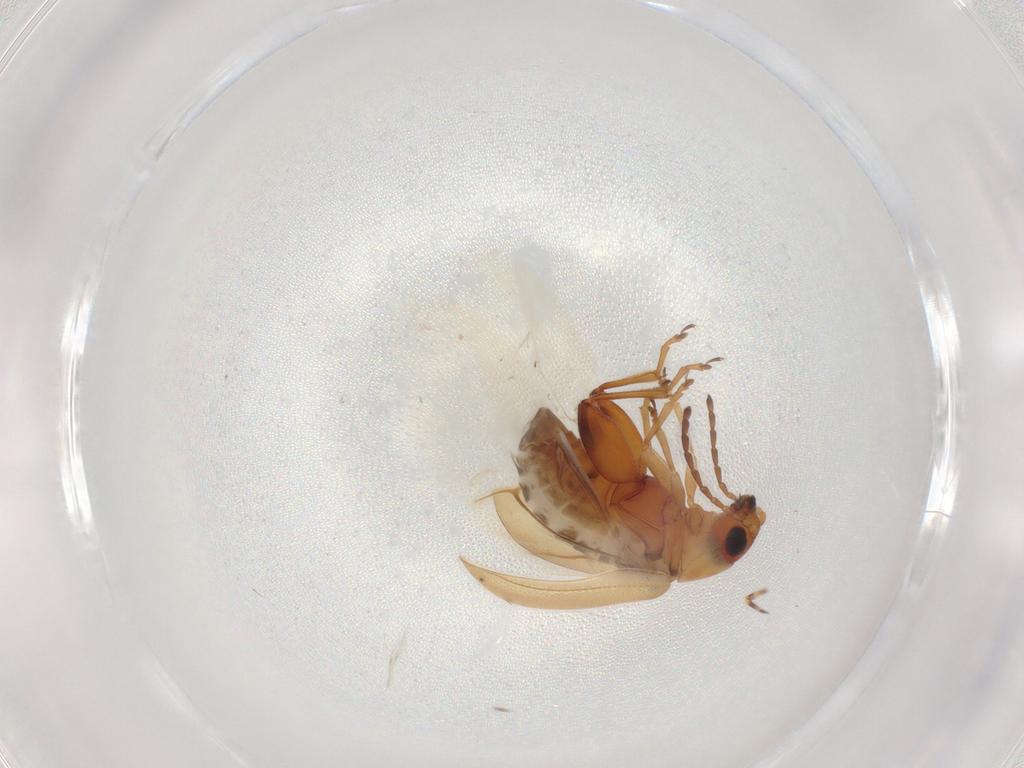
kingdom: Animalia
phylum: Arthropoda
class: Insecta
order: Coleoptera
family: Chrysomelidae
